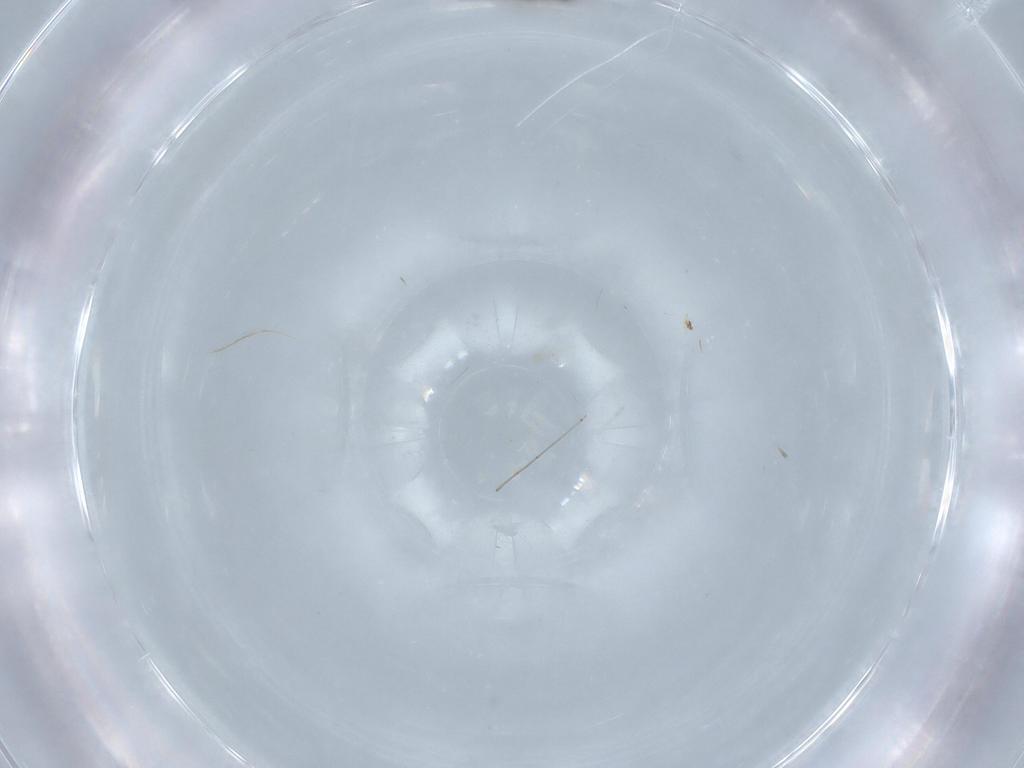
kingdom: Animalia
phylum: Arthropoda
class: Insecta
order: Diptera
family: Cecidomyiidae
